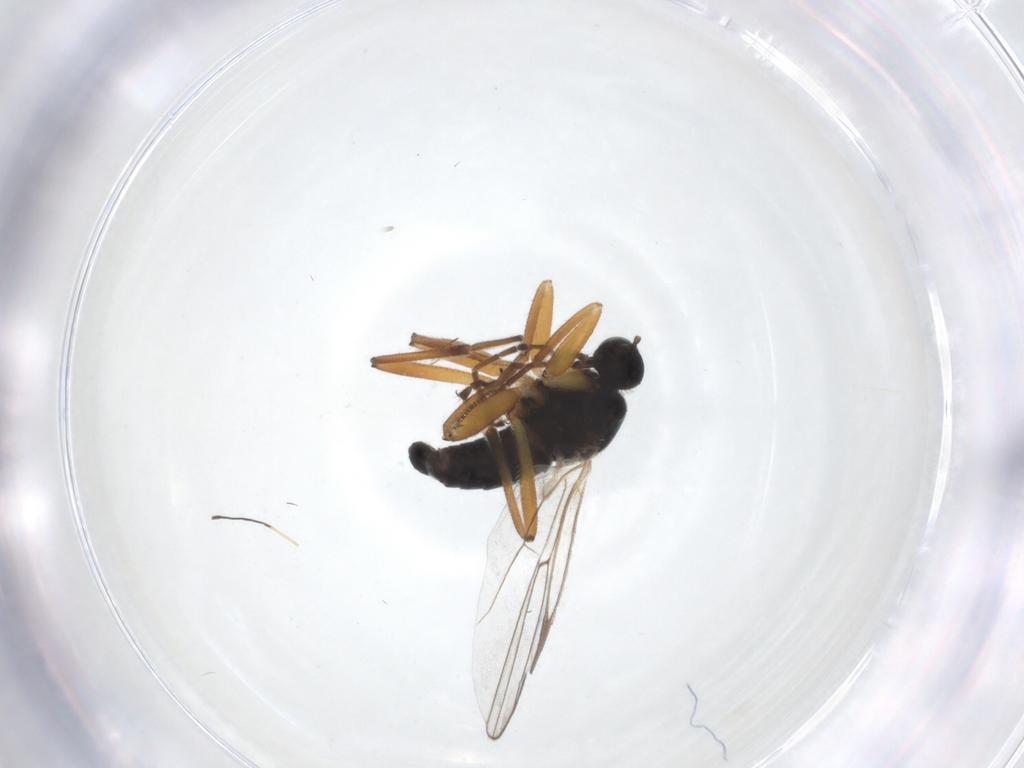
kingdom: Animalia
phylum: Arthropoda
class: Insecta
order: Diptera
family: Hybotidae
